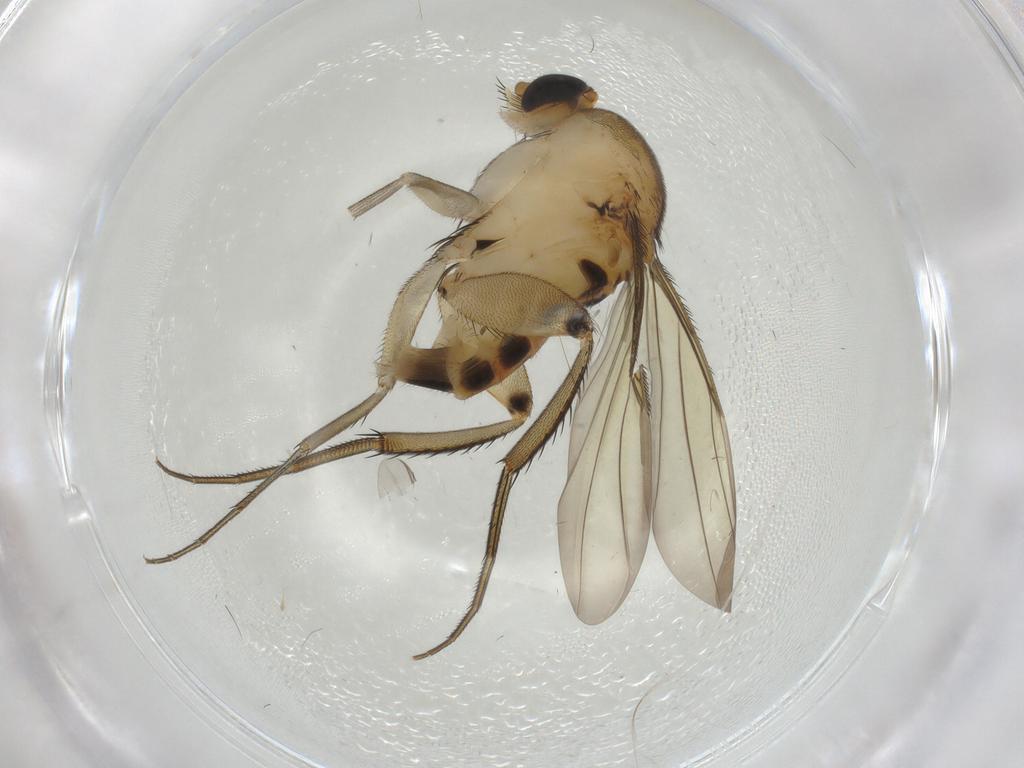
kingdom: Animalia
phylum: Arthropoda
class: Insecta
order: Diptera
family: Phoridae
